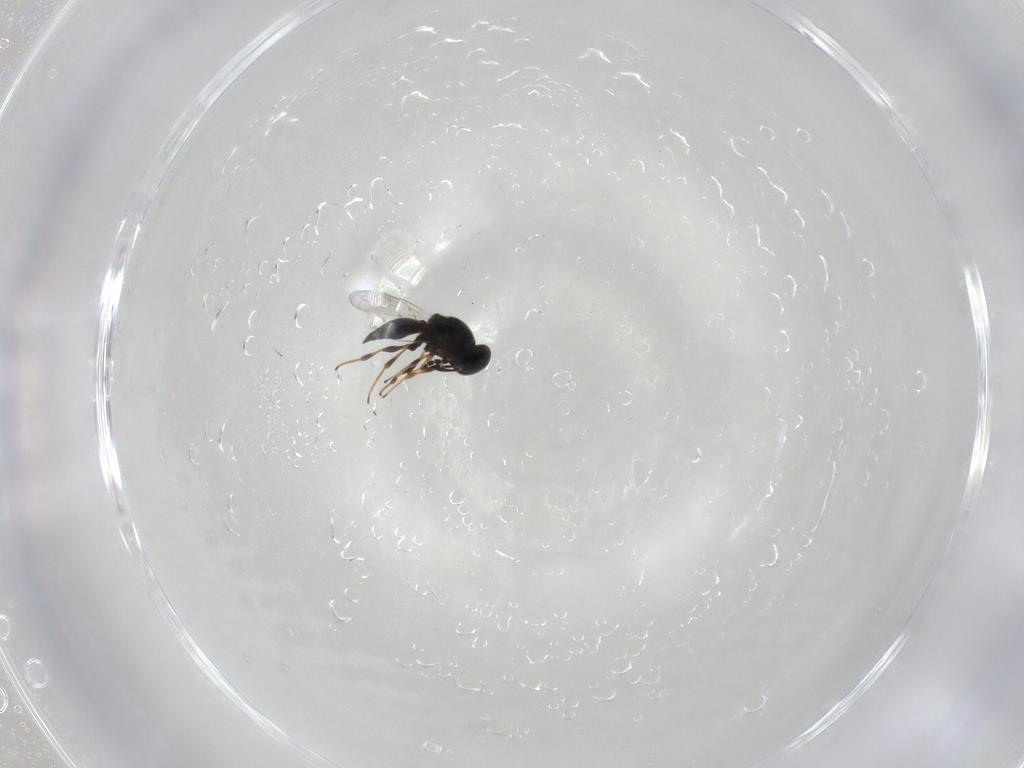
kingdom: Animalia
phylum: Arthropoda
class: Insecta
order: Hymenoptera
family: Platygastridae
